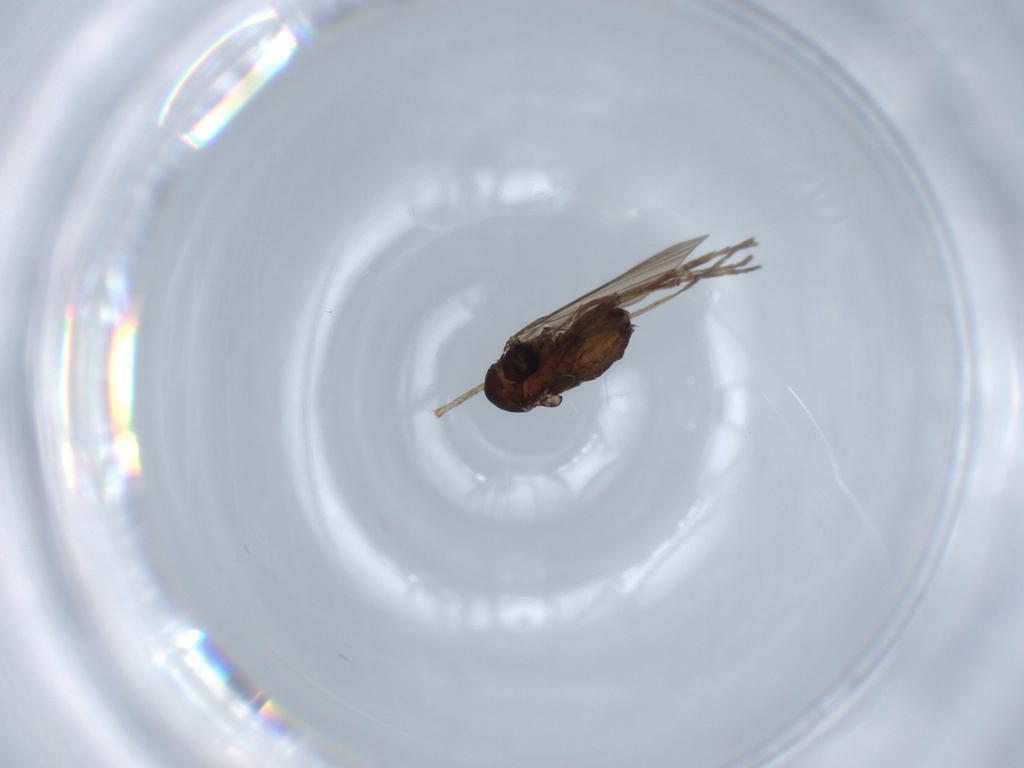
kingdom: Animalia
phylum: Arthropoda
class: Insecta
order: Diptera
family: Psychodidae
